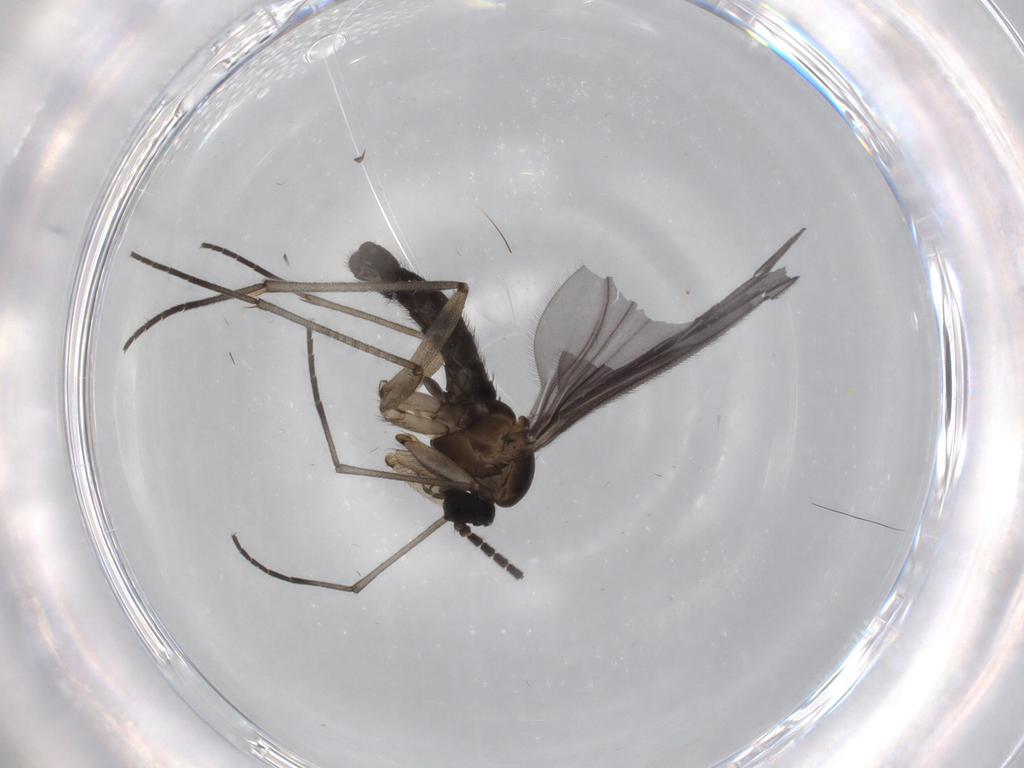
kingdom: Animalia
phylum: Arthropoda
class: Insecta
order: Diptera
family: Sciaridae
